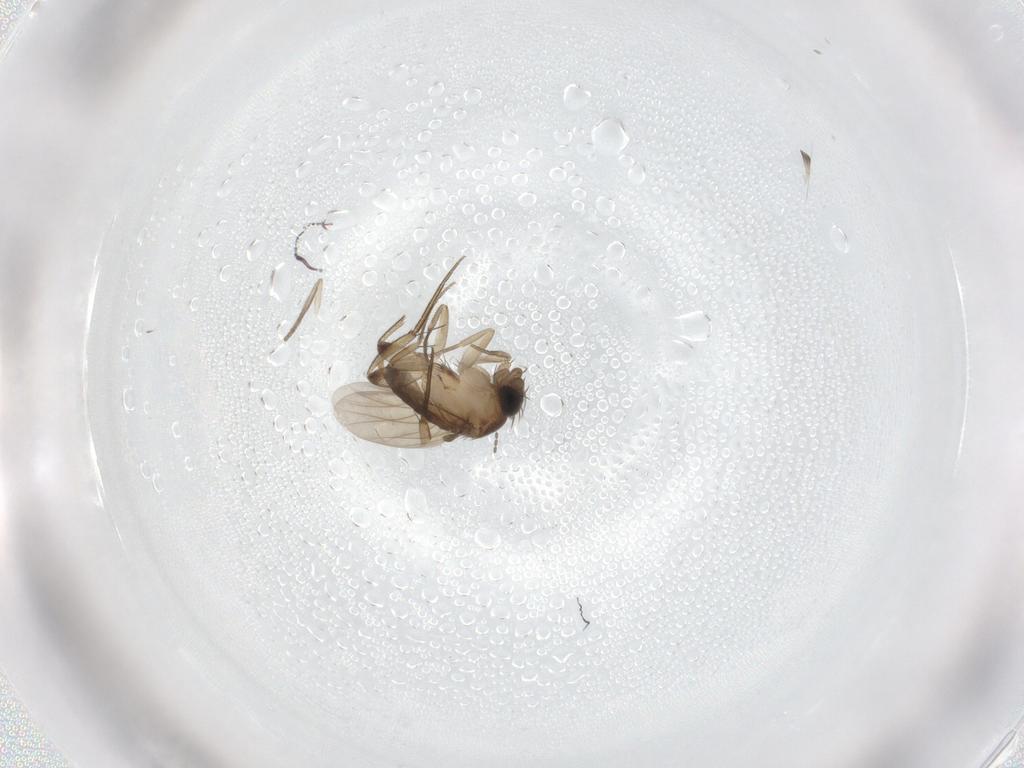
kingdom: Animalia
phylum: Arthropoda
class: Insecta
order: Diptera
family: Phoridae
